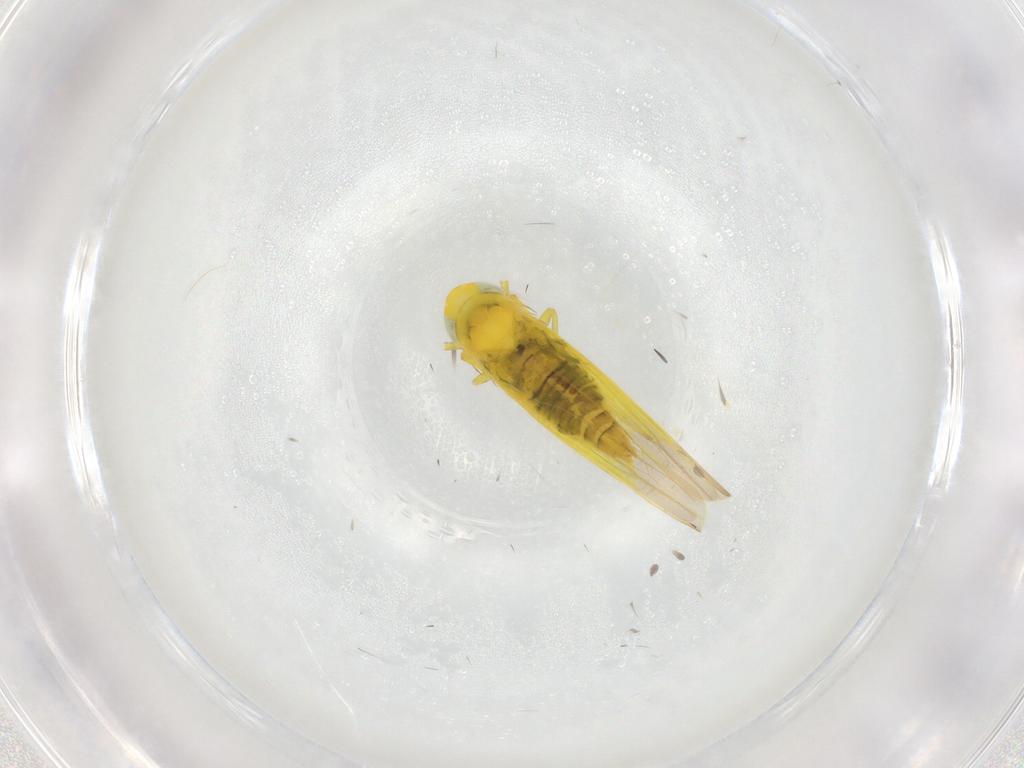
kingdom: Animalia
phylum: Arthropoda
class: Insecta
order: Hemiptera
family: Cicadellidae
